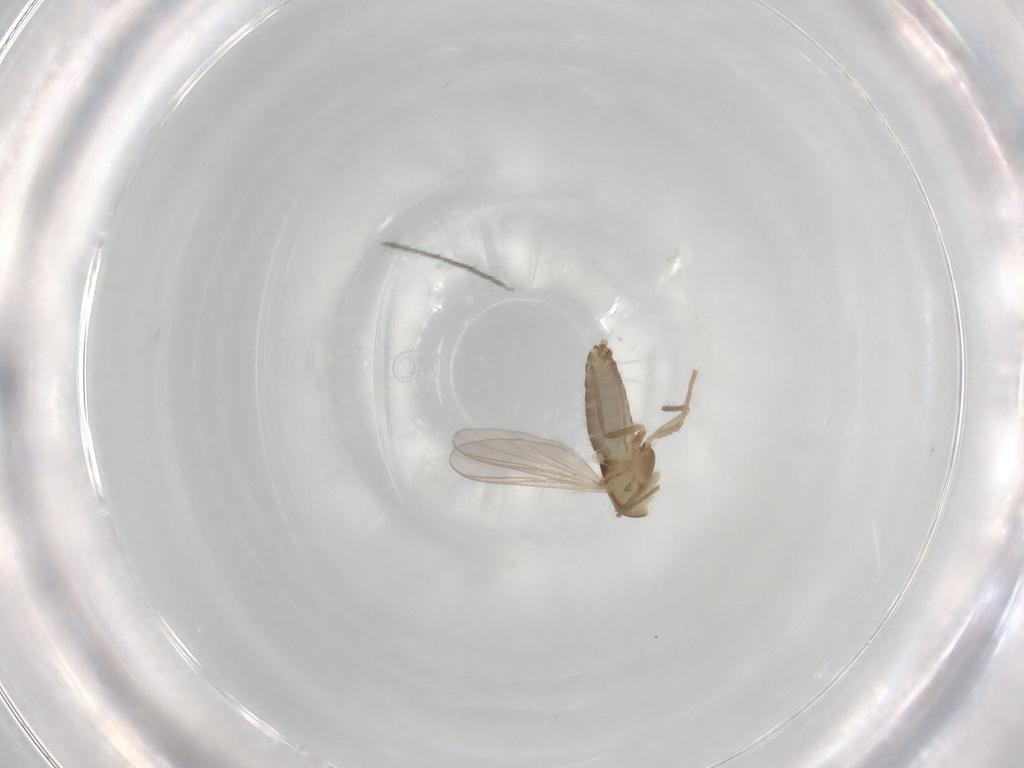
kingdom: Animalia
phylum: Arthropoda
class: Insecta
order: Diptera
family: Chironomidae
